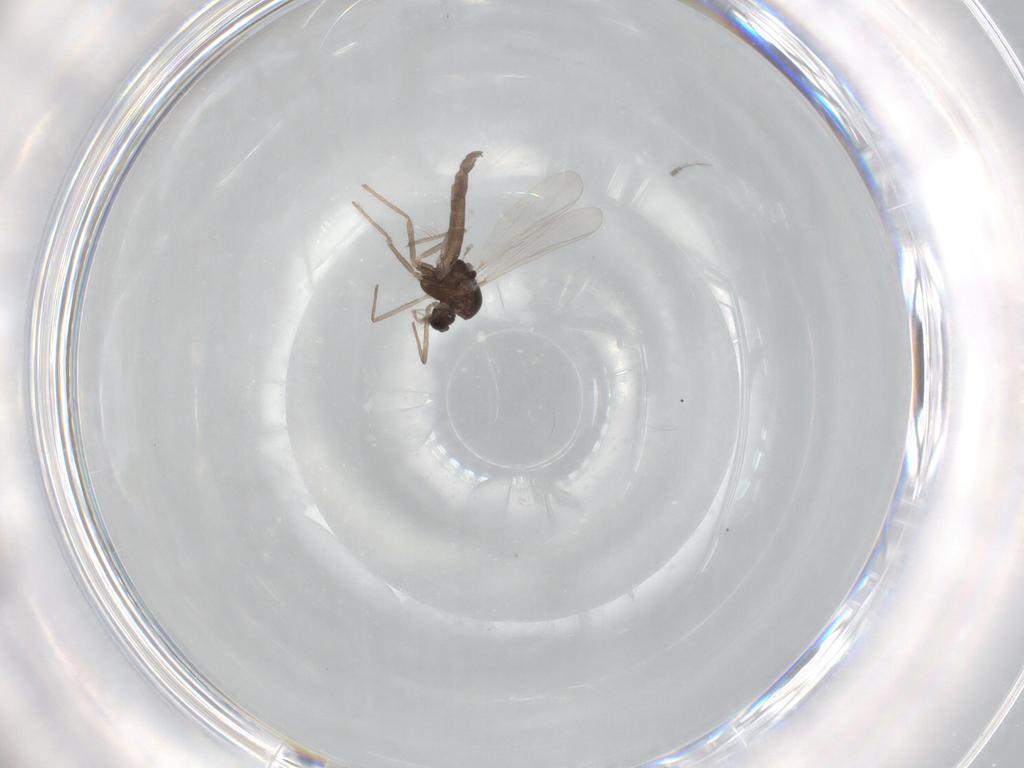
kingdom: Animalia
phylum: Arthropoda
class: Insecta
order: Diptera
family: Chironomidae
